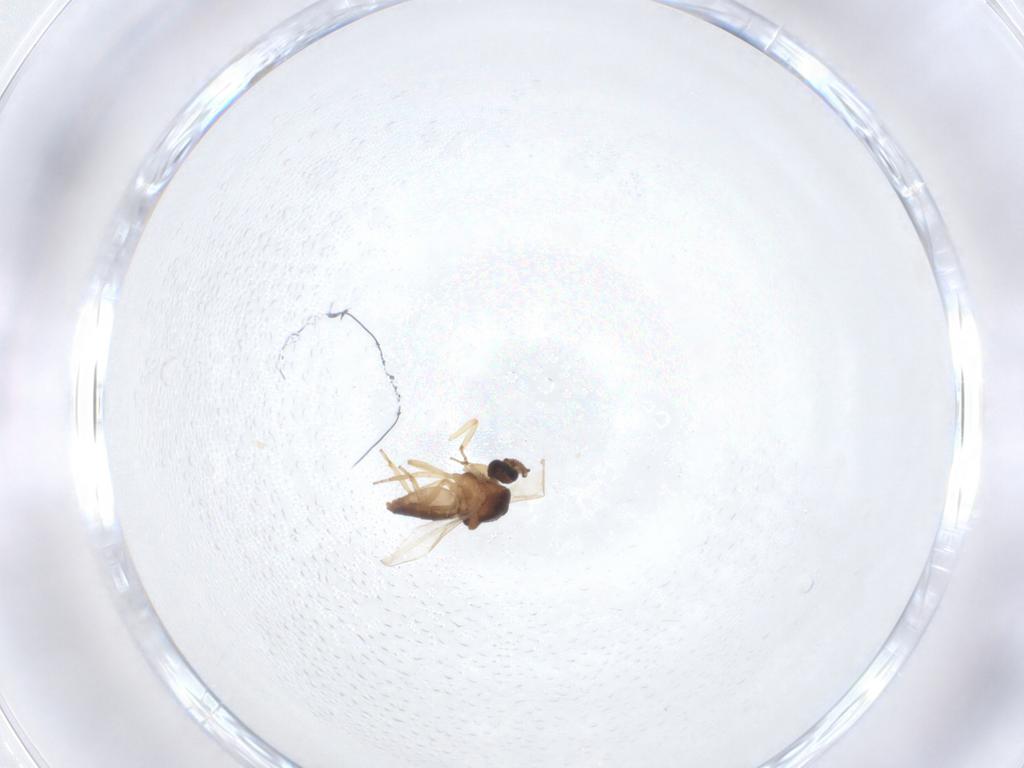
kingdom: Animalia
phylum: Arthropoda
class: Insecta
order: Diptera
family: Ceratopogonidae
